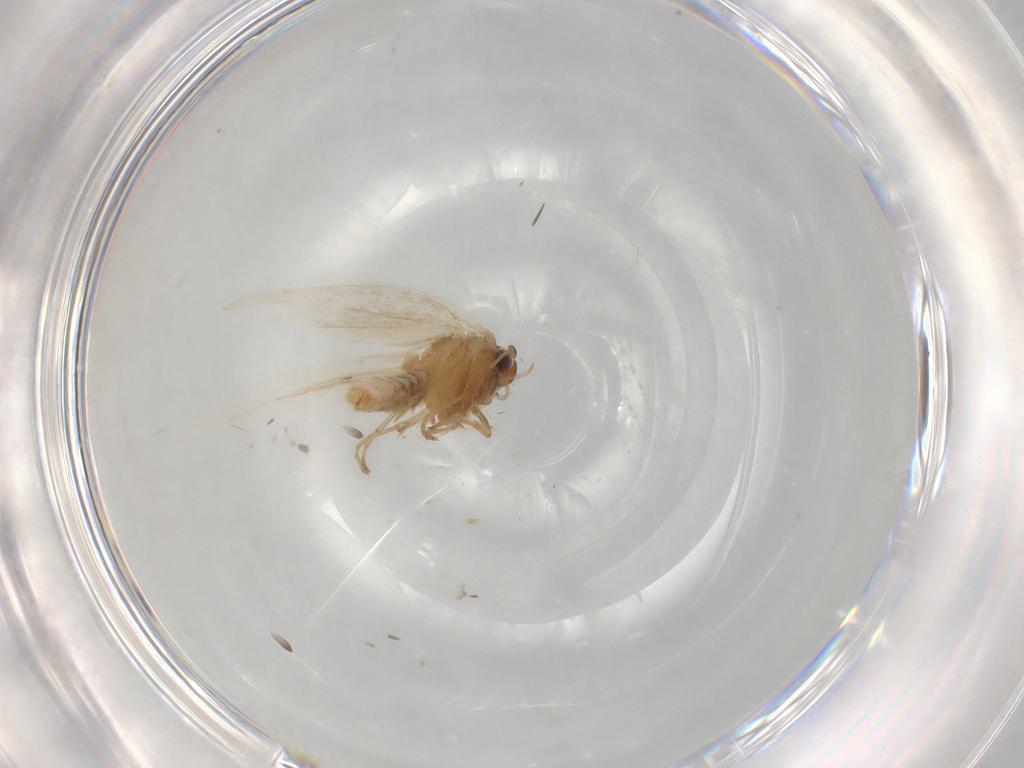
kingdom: Animalia
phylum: Arthropoda
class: Insecta
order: Lepidoptera
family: Gelechiidae
